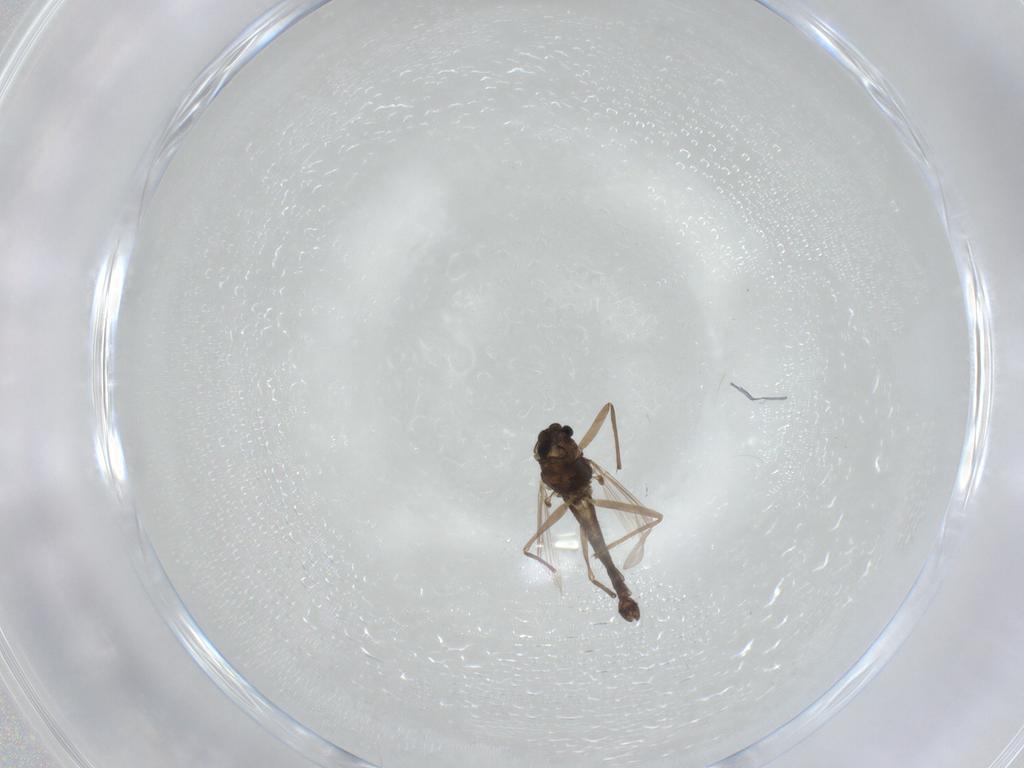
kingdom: Animalia
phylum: Arthropoda
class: Insecta
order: Diptera
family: Chironomidae
